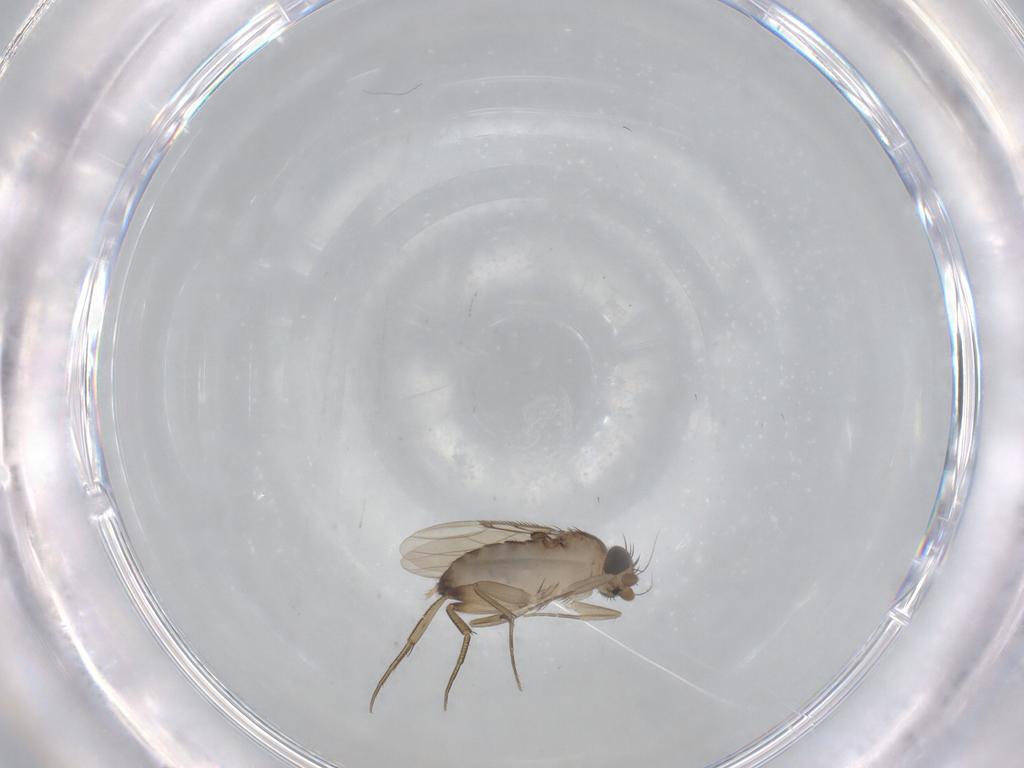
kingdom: Animalia
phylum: Arthropoda
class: Insecta
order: Diptera
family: Phoridae
